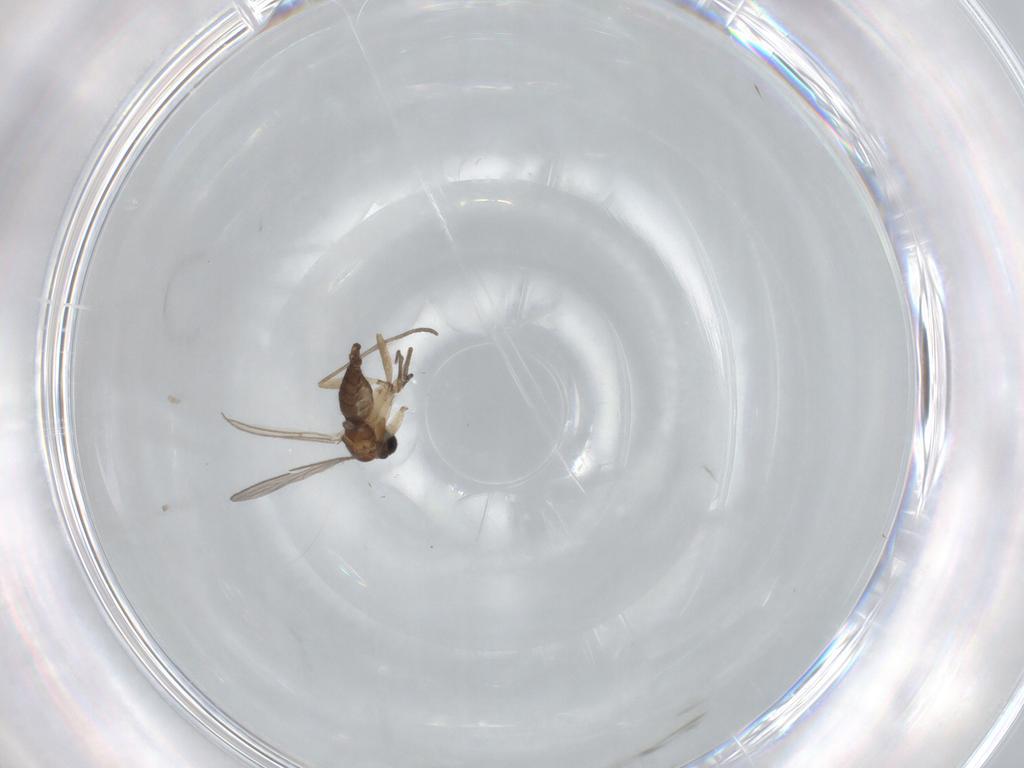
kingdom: Animalia
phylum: Arthropoda
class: Insecta
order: Diptera
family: Sciaridae
